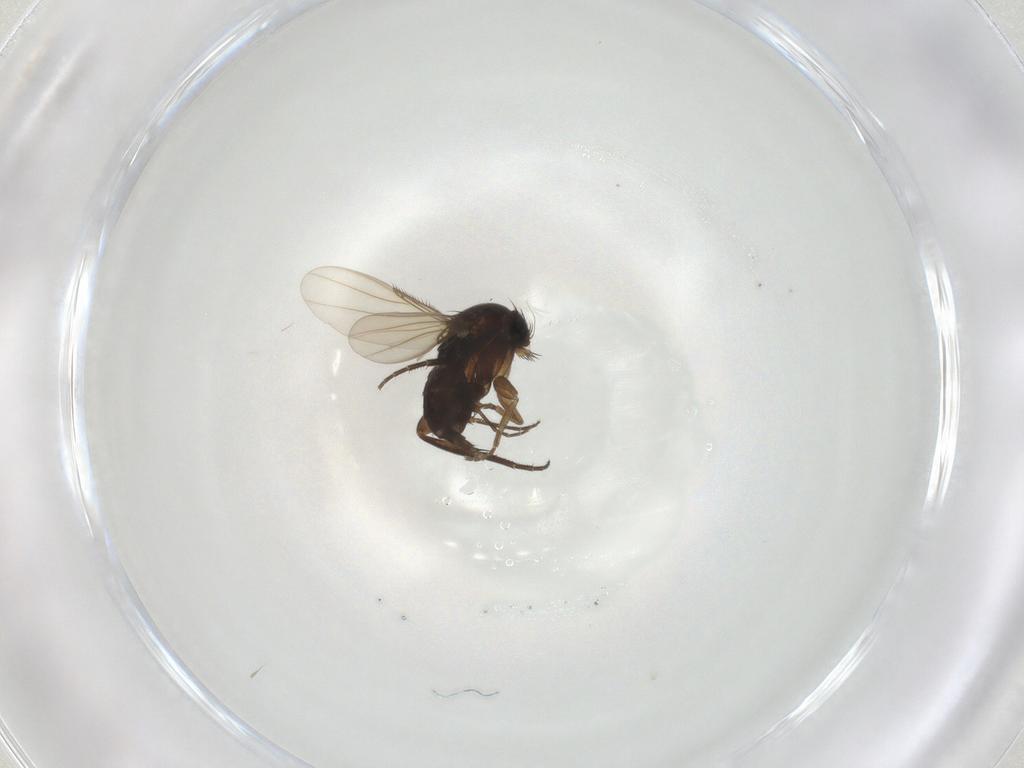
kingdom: Animalia
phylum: Arthropoda
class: Insecta
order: Diptera
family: Phoridae
